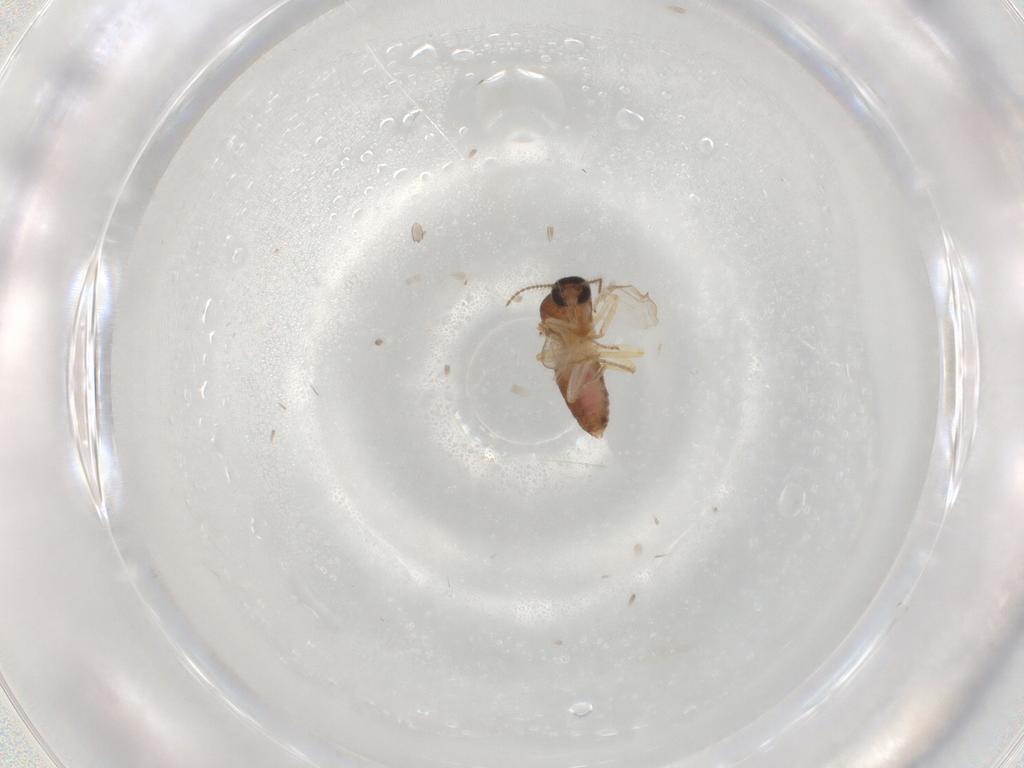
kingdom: Animalia
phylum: Arthropoda
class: Insecta
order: Diptera
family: Ceratopogonidae
